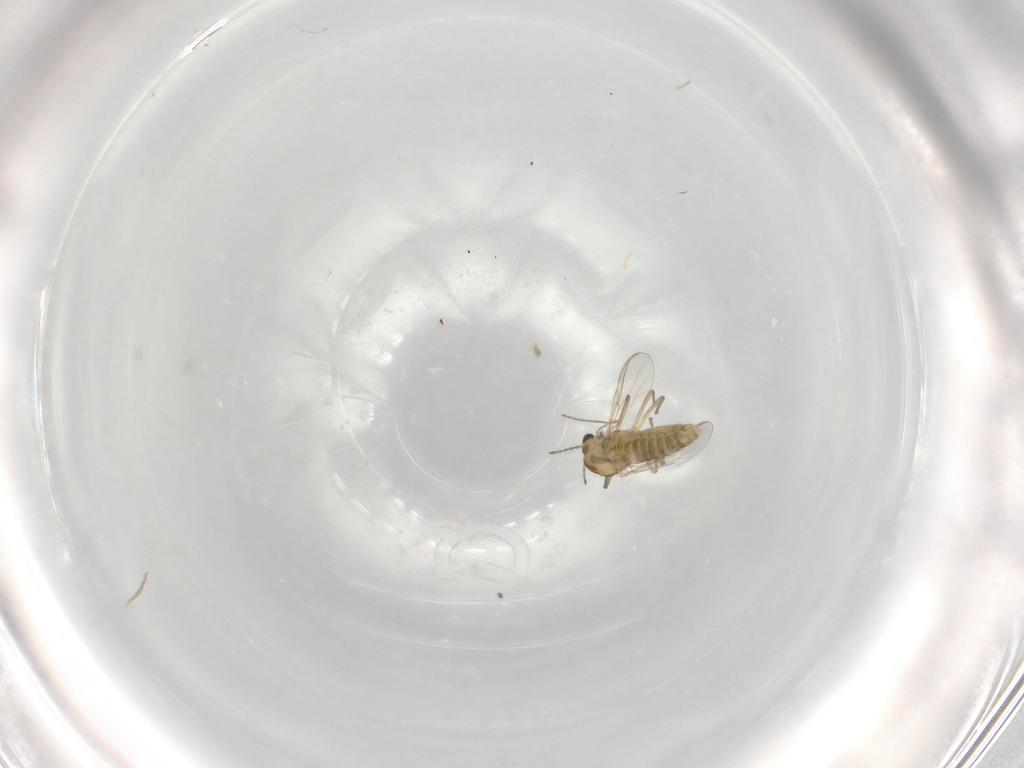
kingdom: Animalia
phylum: Arthropoda
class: Insecta
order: Diptera
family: Chironomidae
